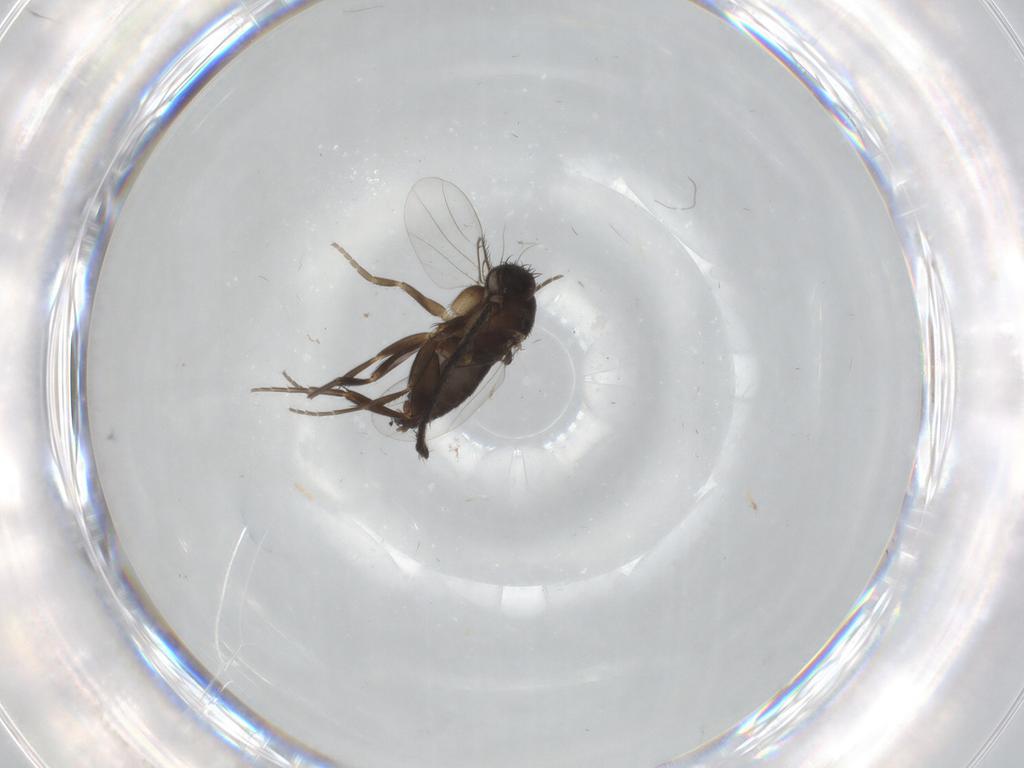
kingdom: Animalia
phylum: Arthropoda
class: Insecta
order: Diptera
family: Phoridae
